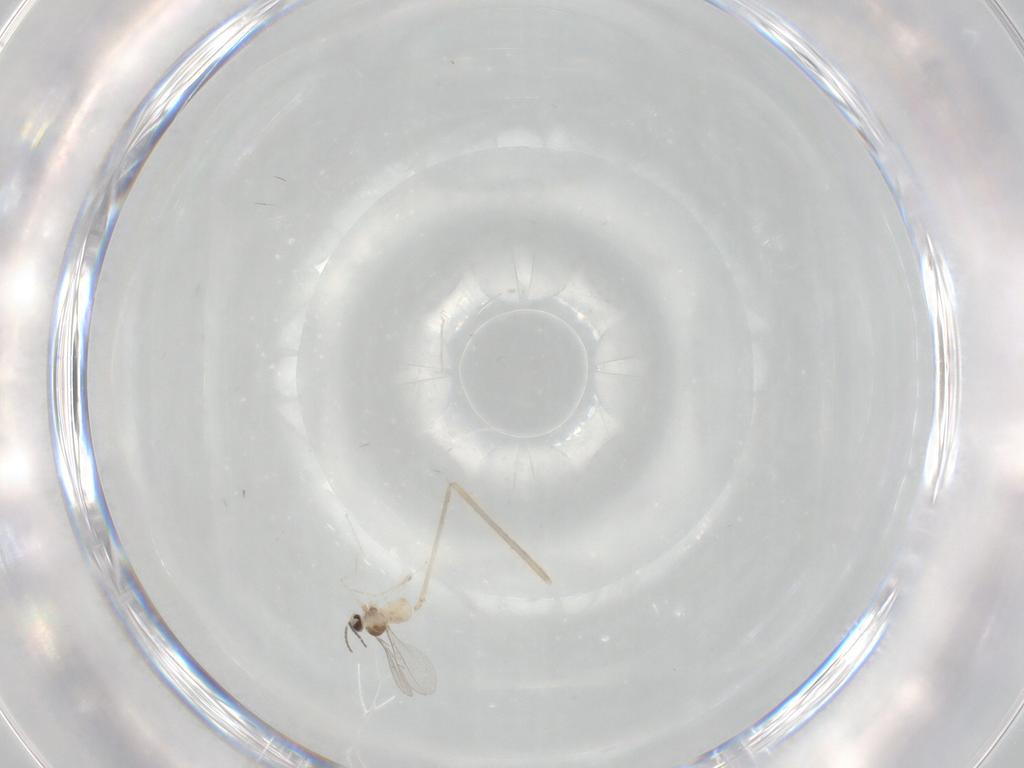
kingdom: Animalia
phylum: Arthropoda
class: Insecta
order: Diptera
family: Cecidomyiidae
